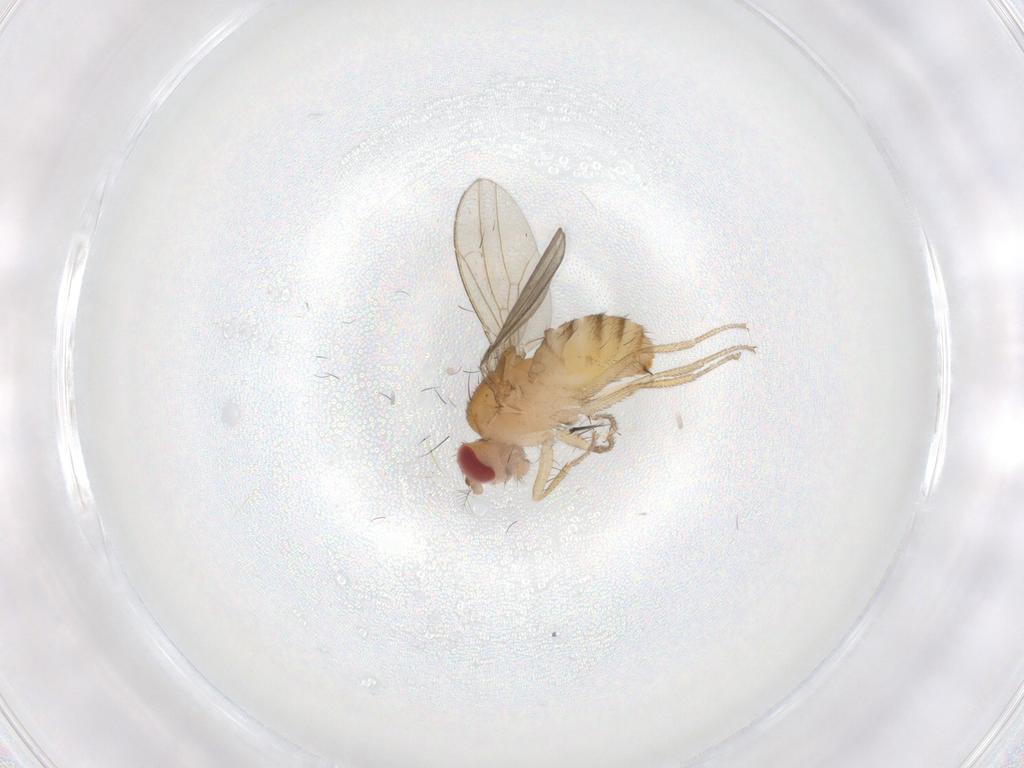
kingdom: Animalia
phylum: Arthropoda
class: Insecta
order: Diptera
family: Drosophilidae
